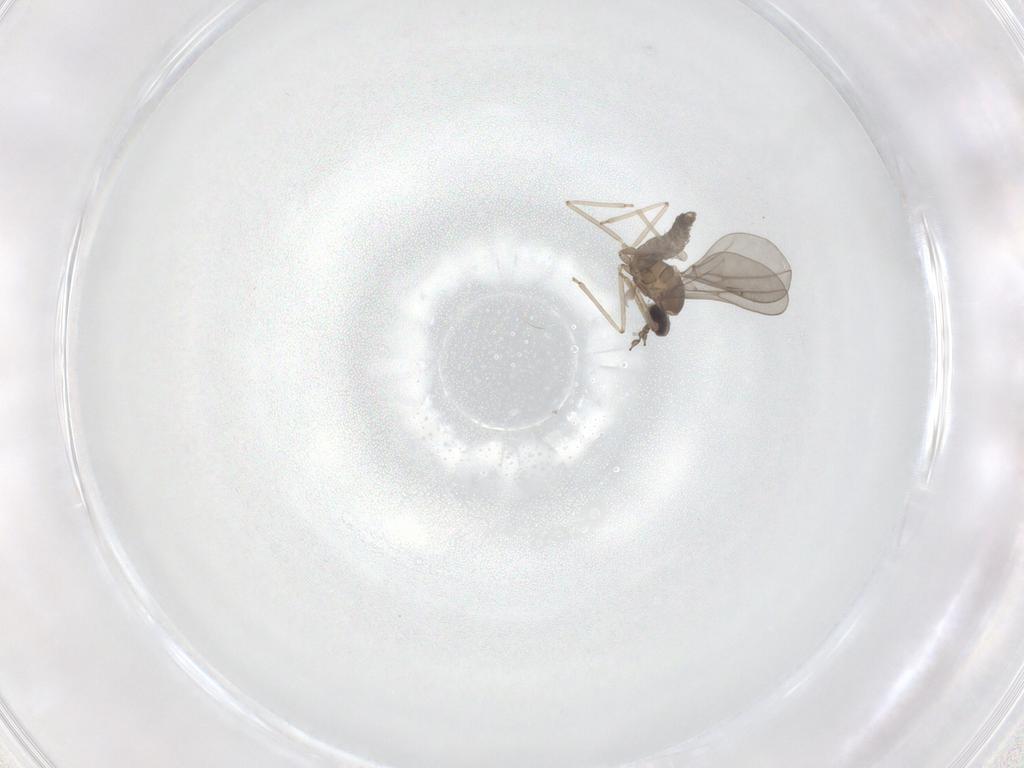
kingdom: Animalia
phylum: Arthropoda
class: Insecta
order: Diptera
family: Cecidomyiidae
